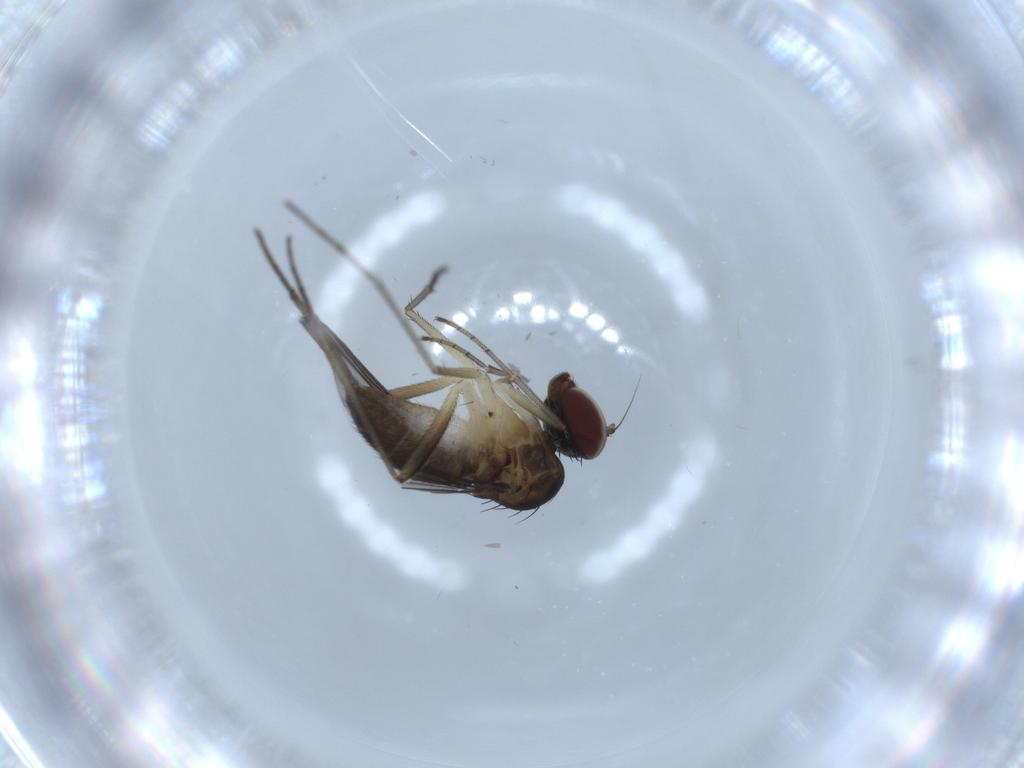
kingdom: Animalia
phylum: Arthropoda
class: Insecta
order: Diptera
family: Dolichopodidae
